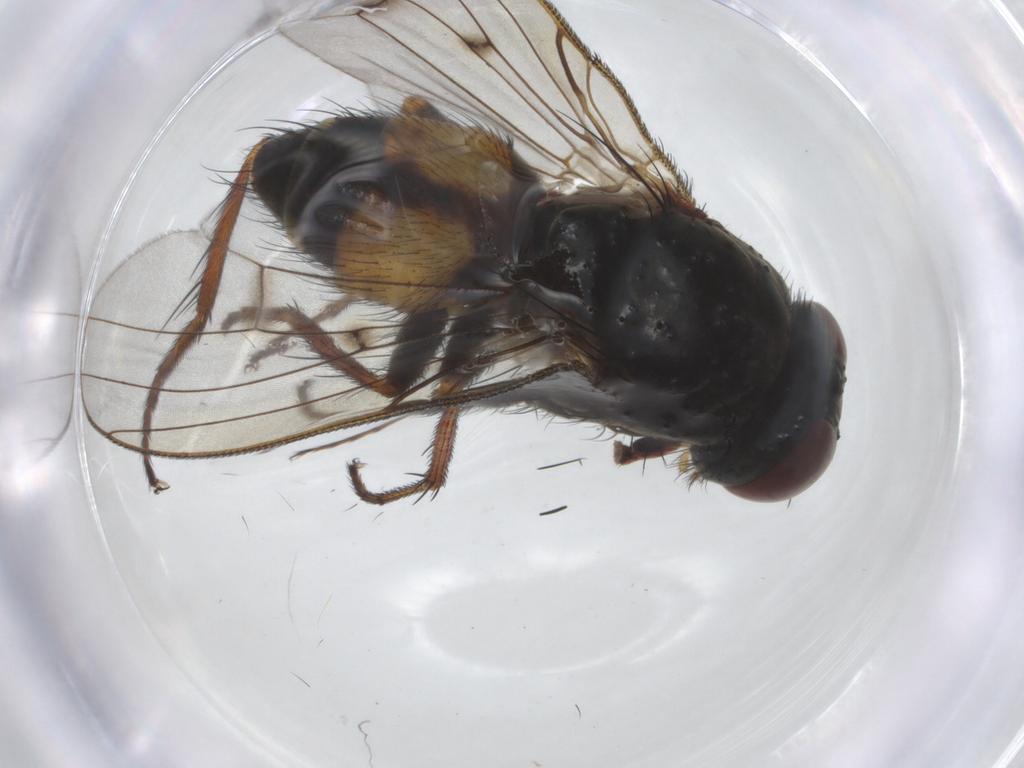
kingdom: Animalia
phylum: Arthropoda
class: Insecta
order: Diptera
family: Muscidae
